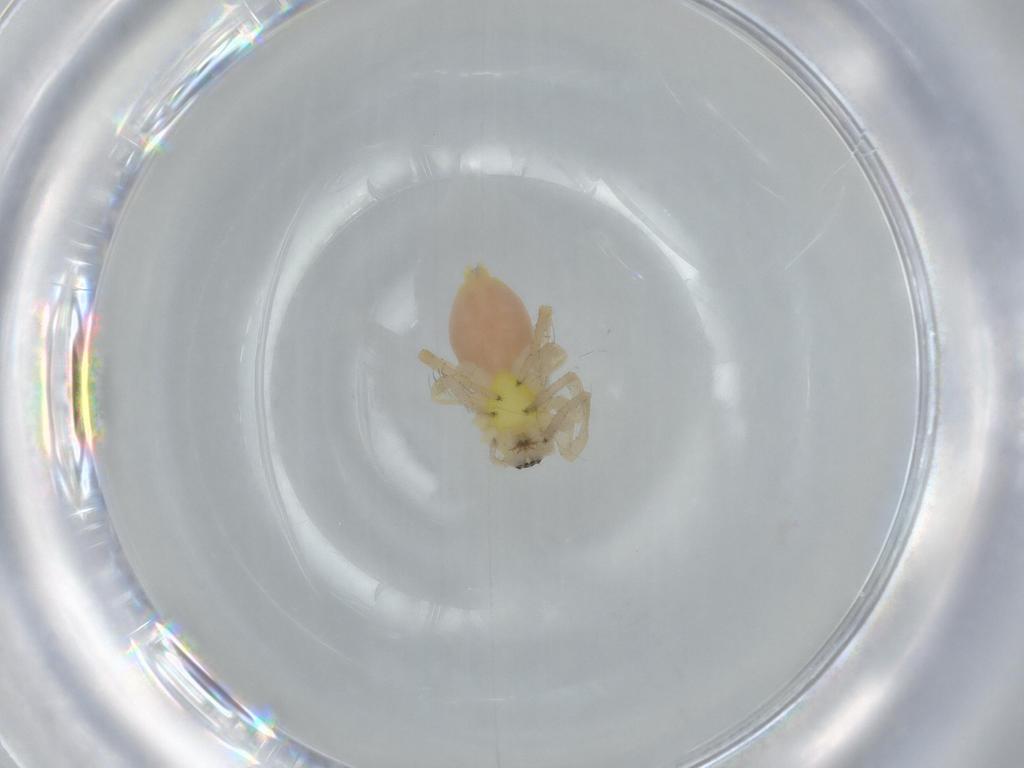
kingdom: Animalia
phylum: Arthropoda
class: Arachnida
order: Araneae
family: Anyphaenidae
